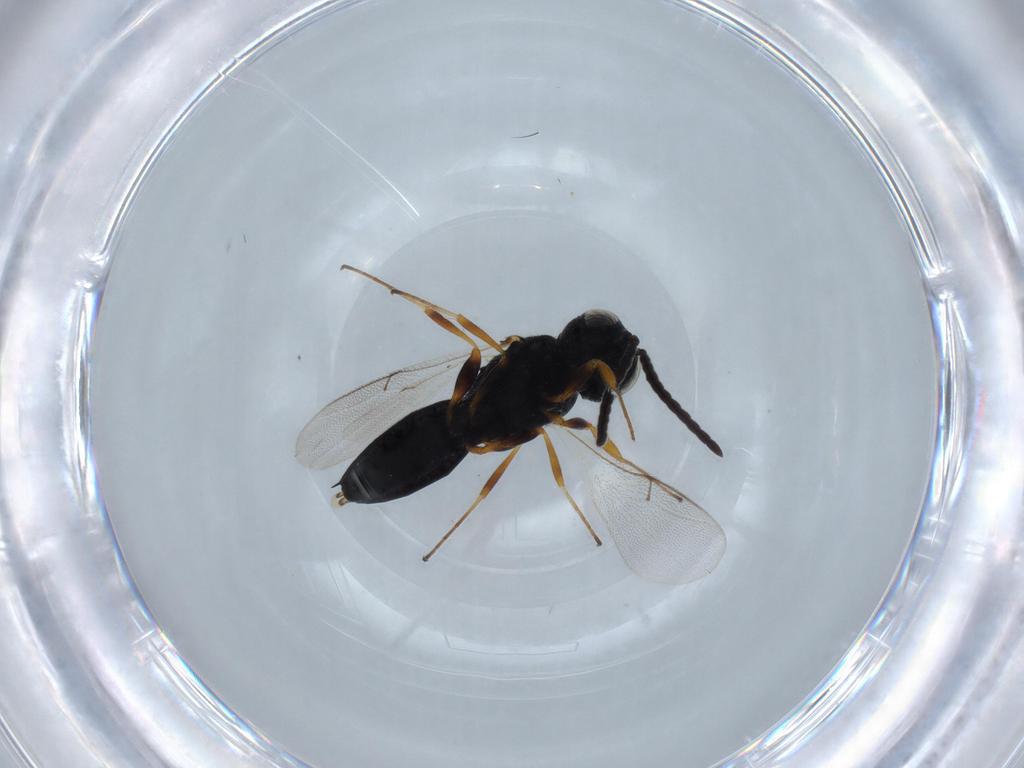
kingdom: Animalia
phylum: Arthropoda
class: Insecta
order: Hymenoptera
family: Bethylidae
